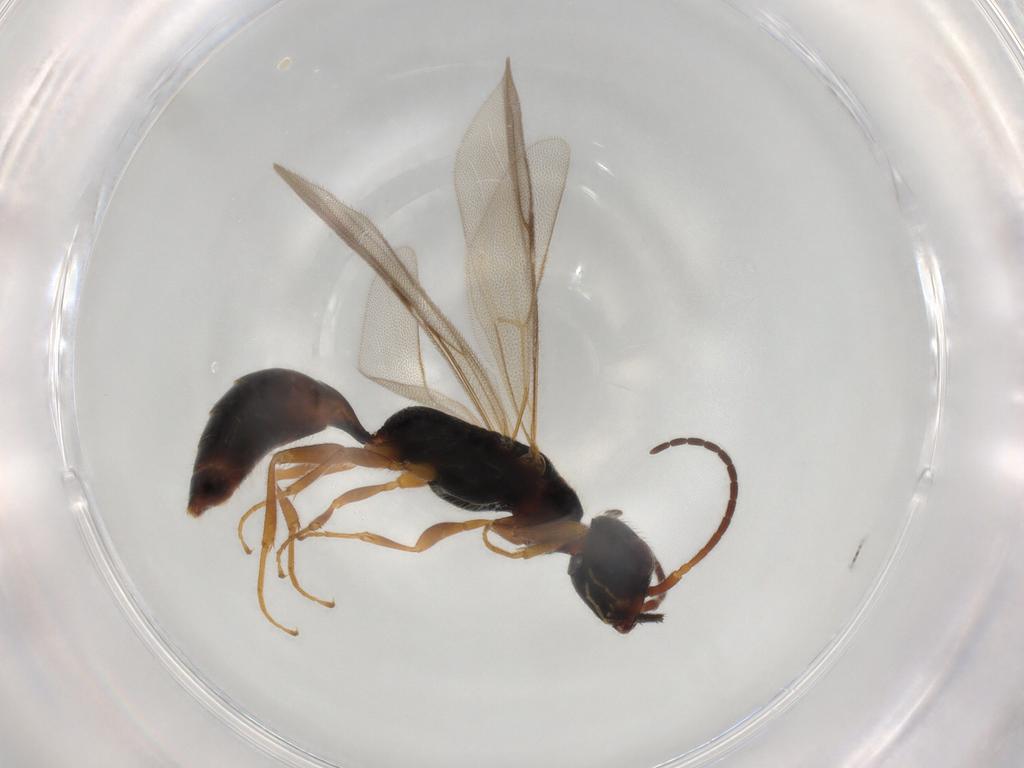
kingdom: Animalia
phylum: Arthropoda
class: Insecta
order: Hymenoptera
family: Bethylidae
